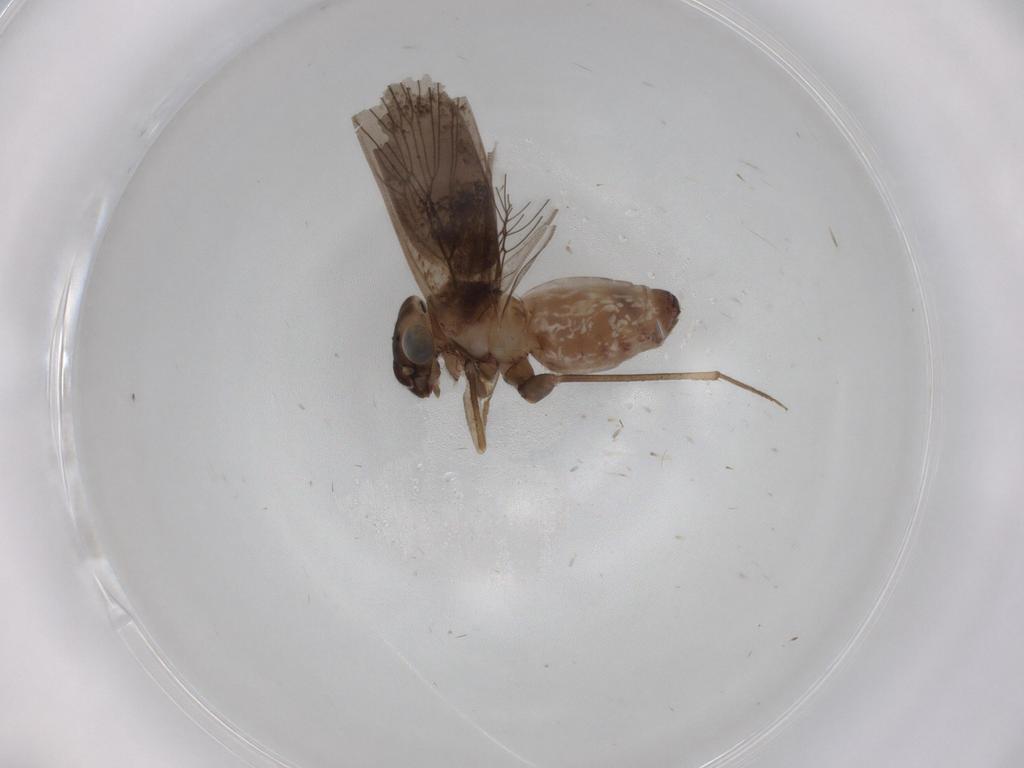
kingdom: Animalia
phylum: Arthropoda
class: Insecta
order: Psocodea
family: Lepidopsocidae
